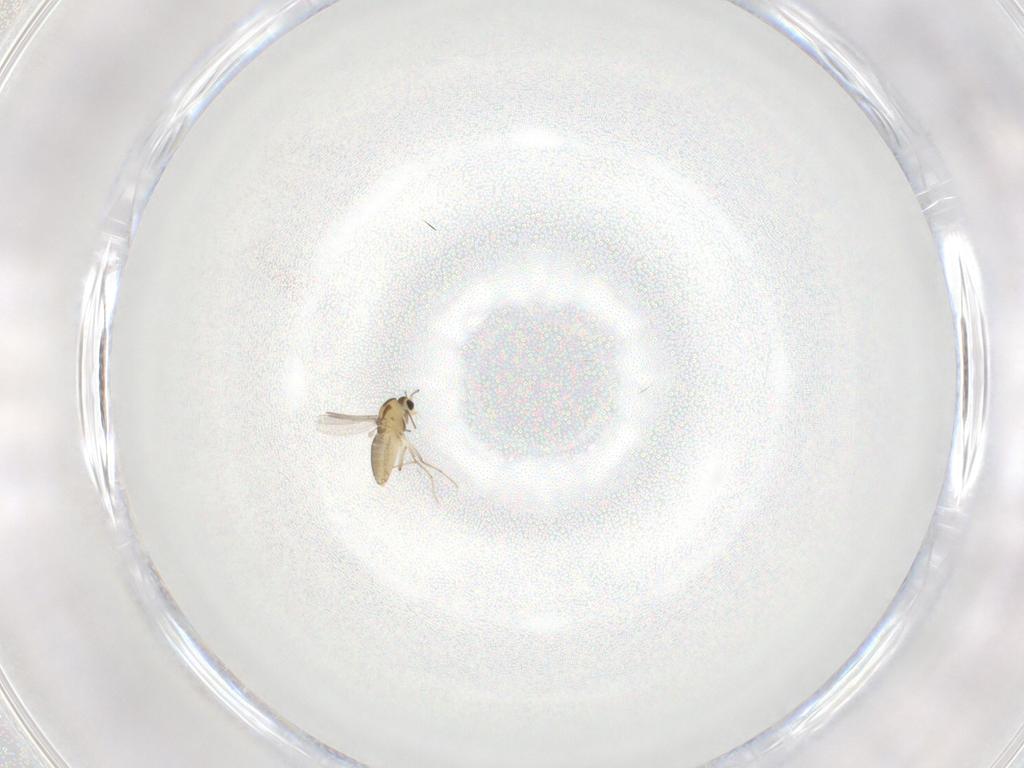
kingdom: Animalia
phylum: Arthropoda
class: Insecta
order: Diptera
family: Chironomidae
